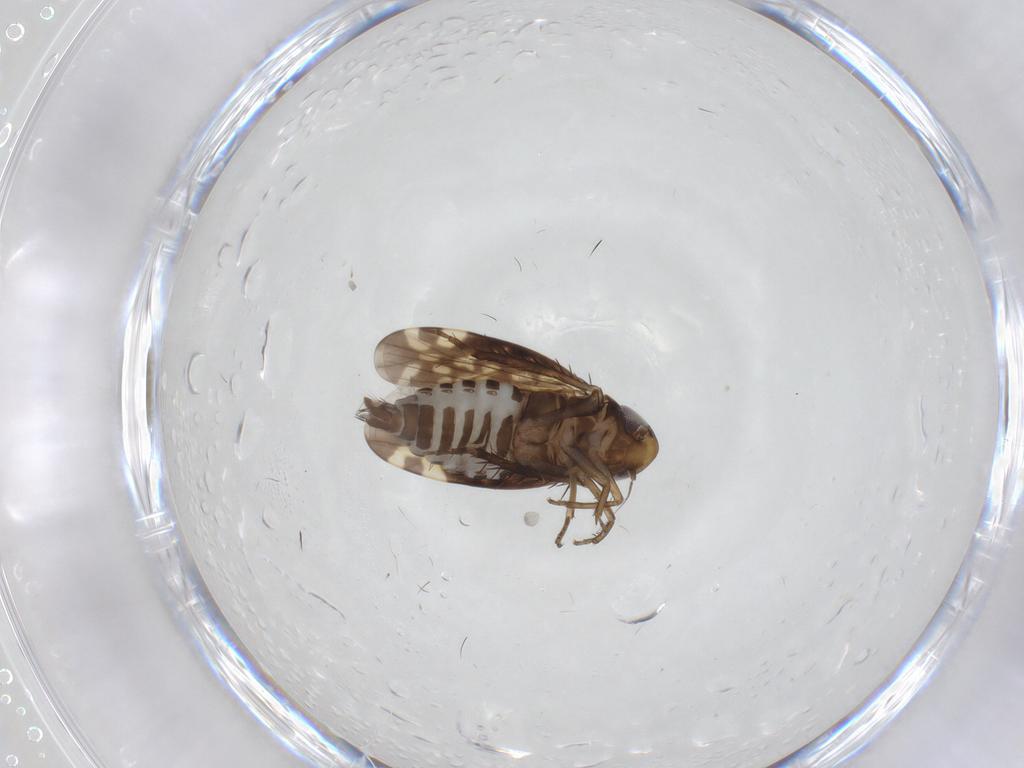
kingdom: Animalia
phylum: Arthropoda
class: Insecta
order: Hemiptera
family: Cicadellidae
